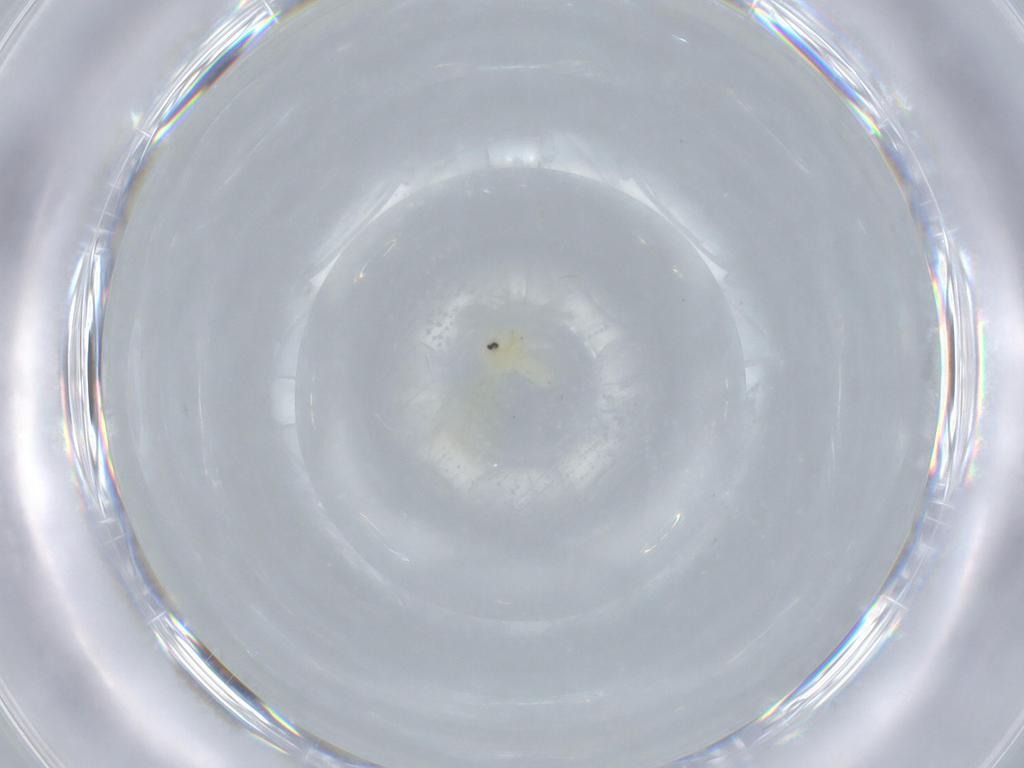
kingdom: Animalia
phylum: Arthropoda
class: Insecta
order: Hemiptera
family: Aleyrodidae
